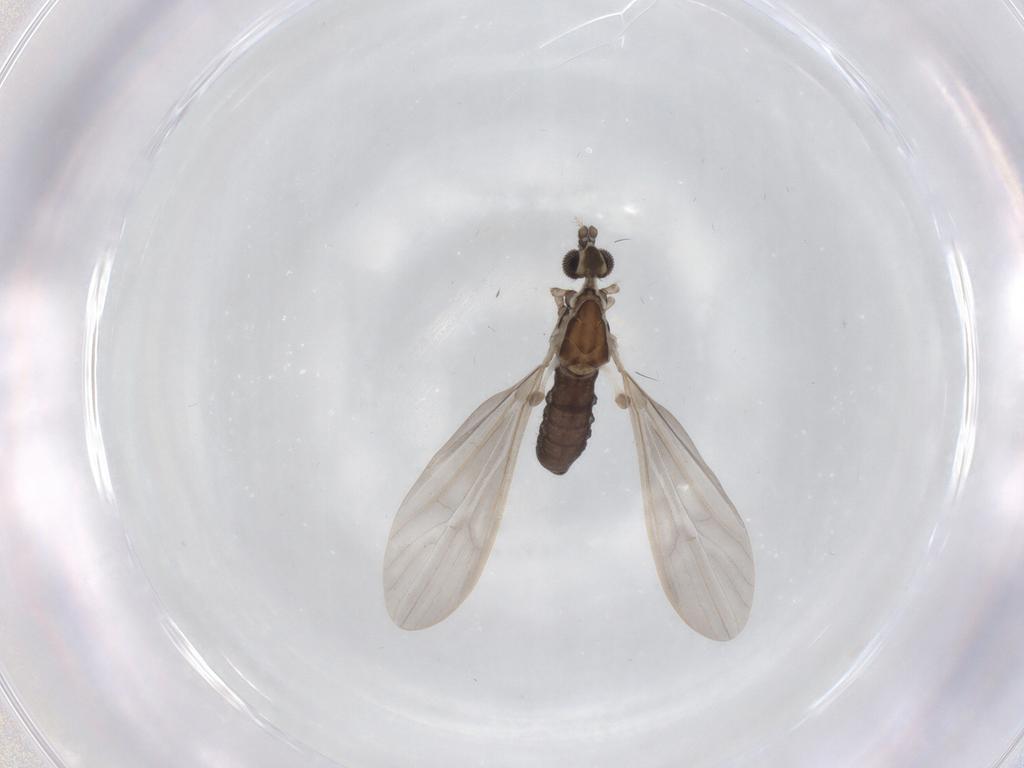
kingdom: Animalia
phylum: Arthropoda
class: Insecta
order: Diptera
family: Limoniidae
